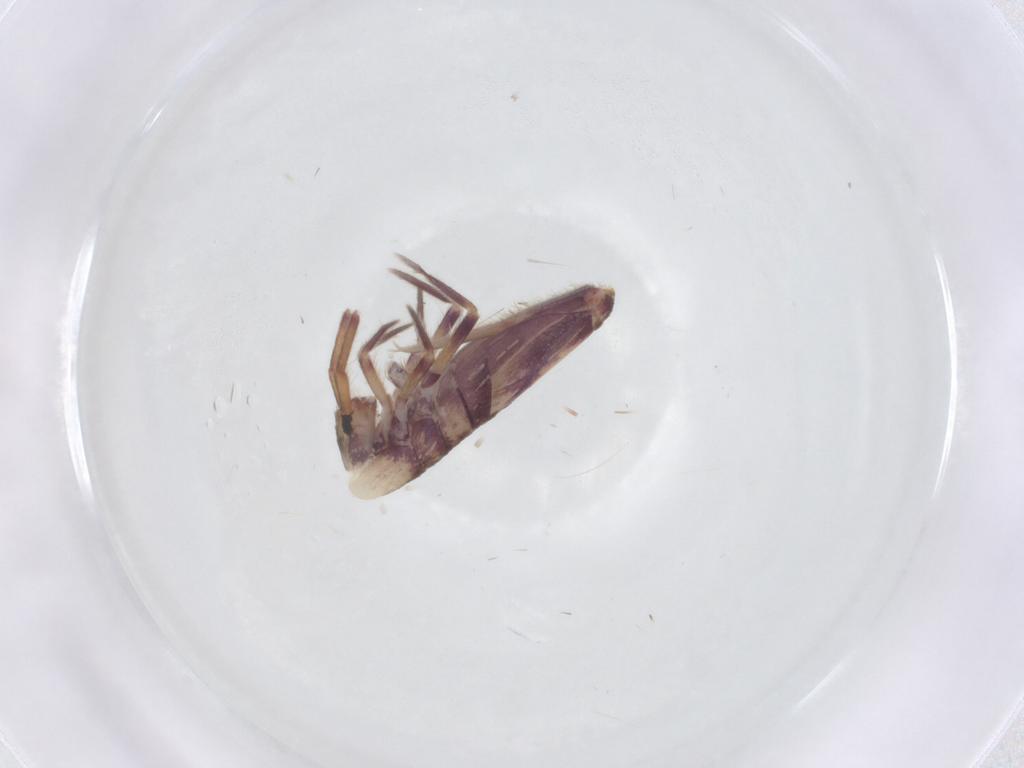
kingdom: Animalia
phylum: Arthropoda
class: Collembola
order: Entomobryomorpha
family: Entomobryidae
